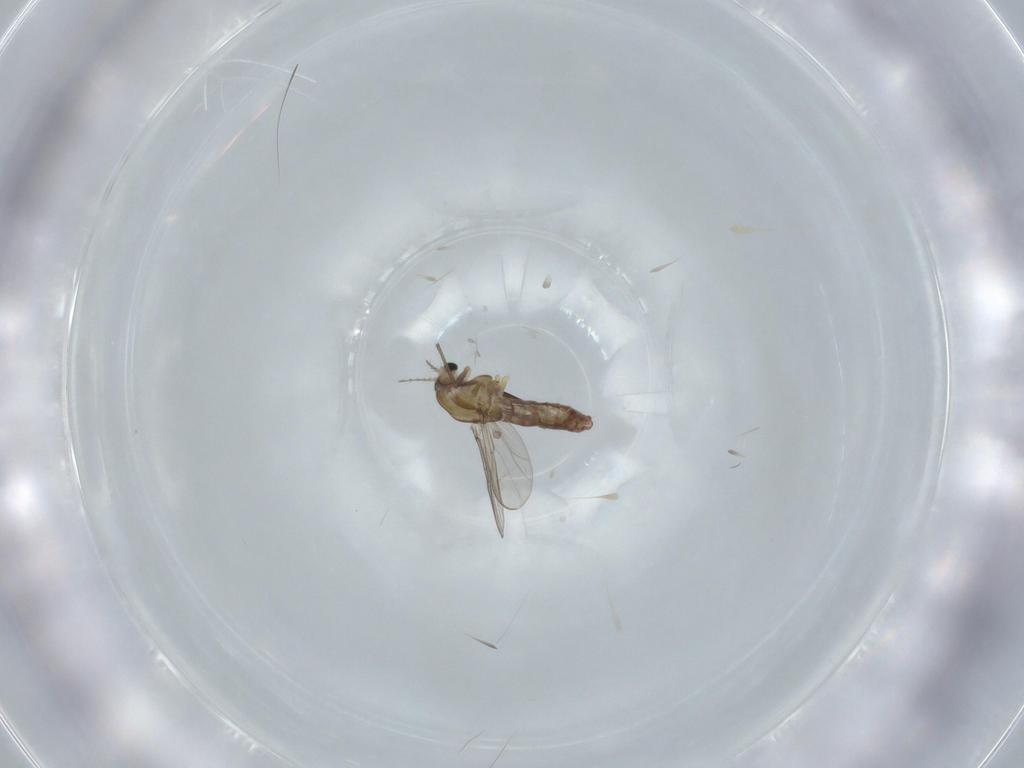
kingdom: Animalia
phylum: Arthropoda
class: Insecta
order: Diptera
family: Chironomidae
